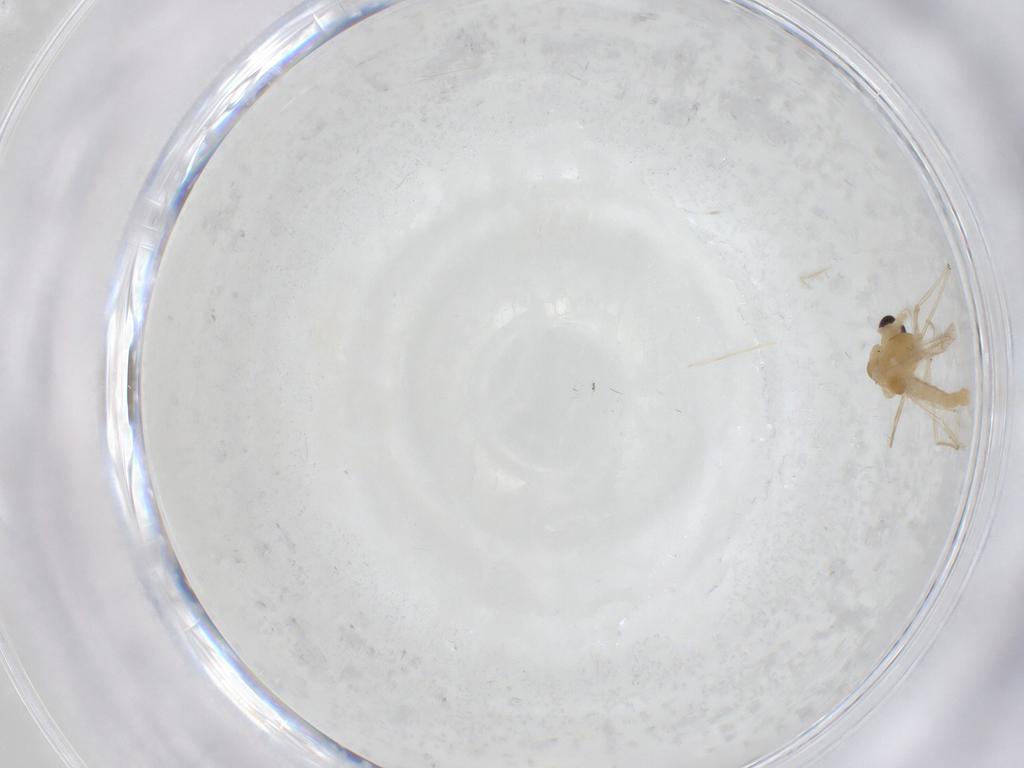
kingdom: Animalia
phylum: Arthropoda
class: Insecta
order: Diptera
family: Chironomidae
